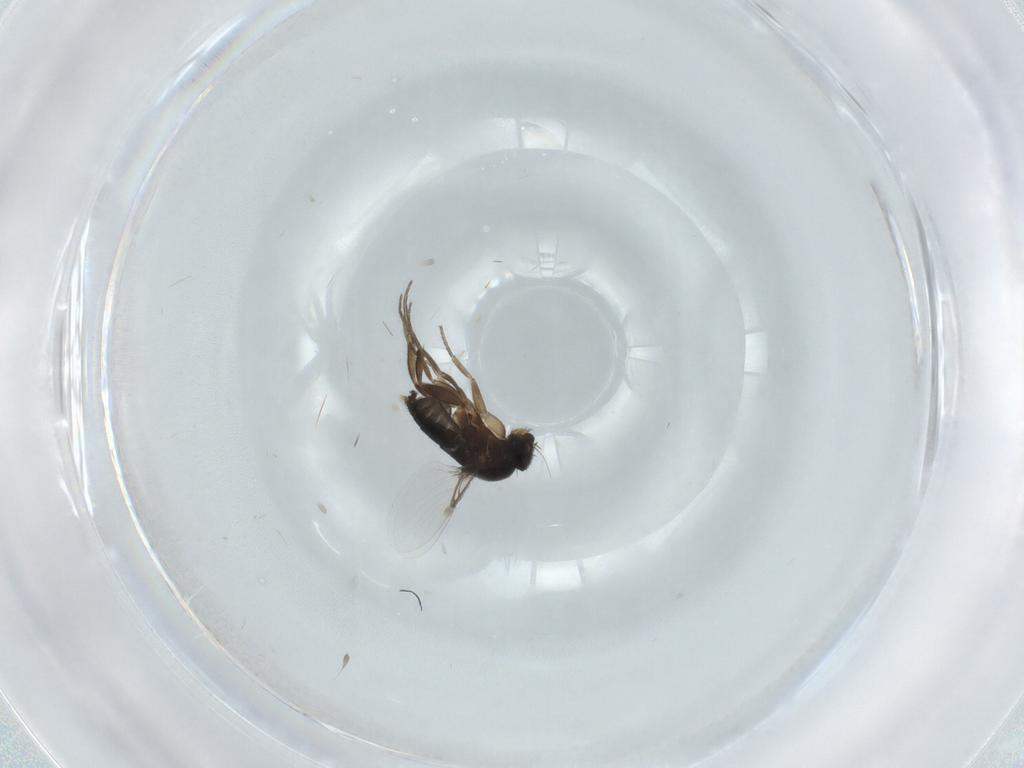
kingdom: Animalia
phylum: Arthropoda
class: Insecta
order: Diptera
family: Phoridae
